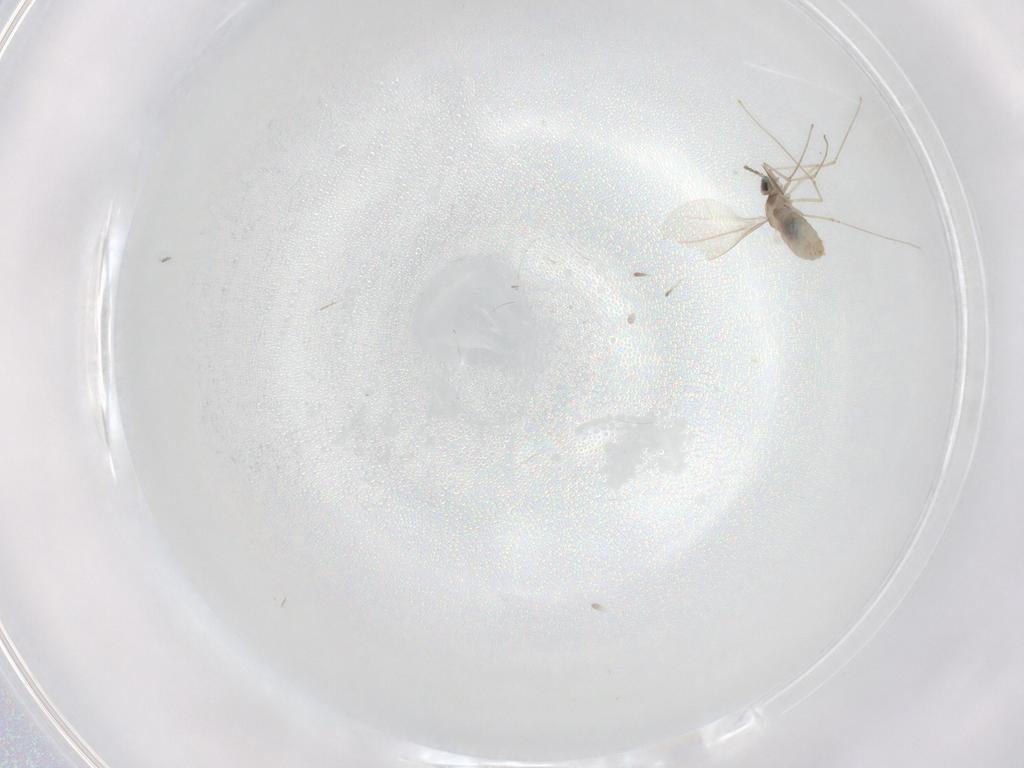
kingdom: Animalia
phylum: Arthropoda
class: Insecta
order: Diptera
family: Cecidomyiidae
